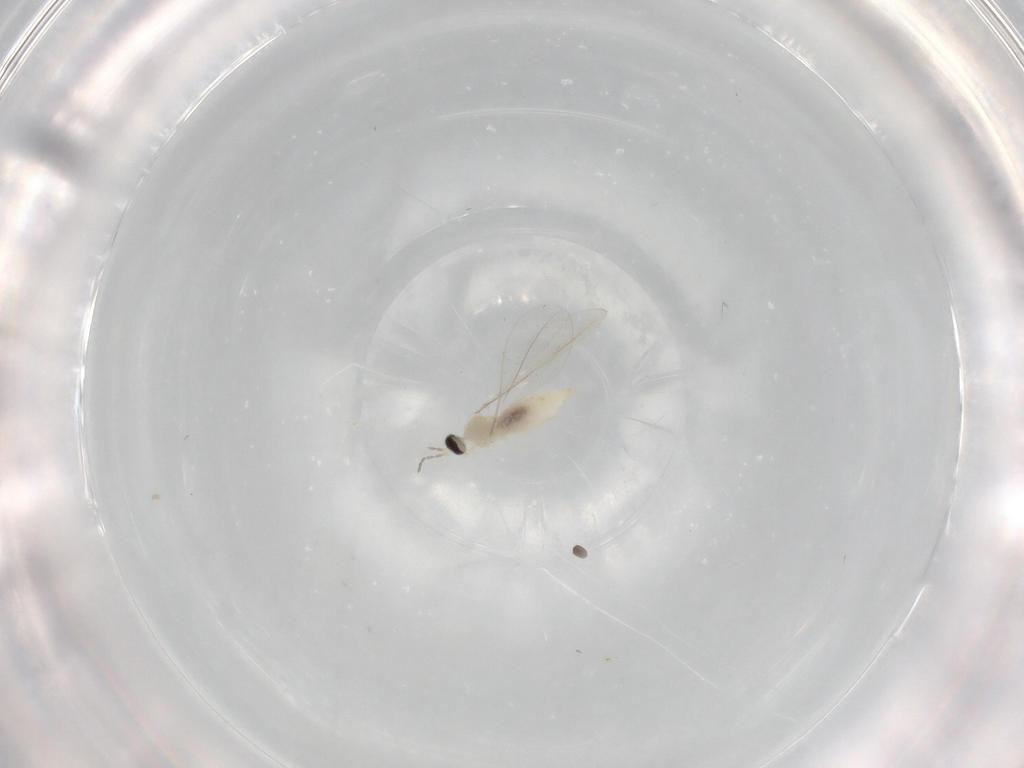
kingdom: Animalia
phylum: Arthropoda
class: Insecta
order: Diptera
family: Cecidomyiidae
